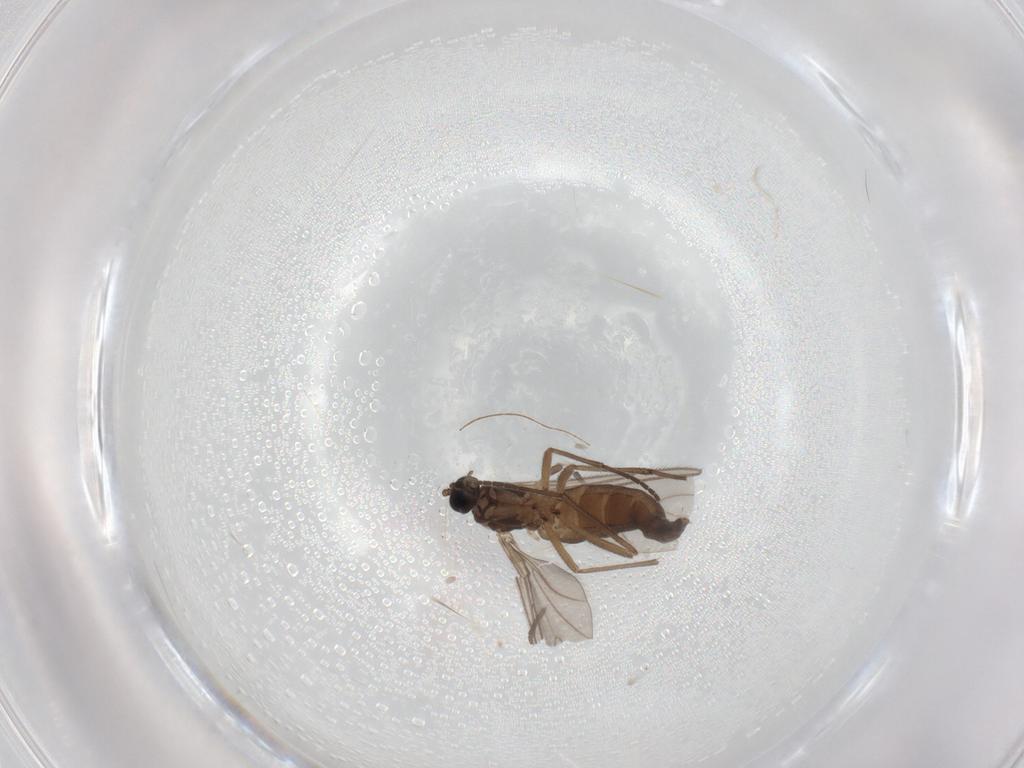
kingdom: Animalia
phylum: Arthropoda
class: Insecta
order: Diptera
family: Sciaridae
